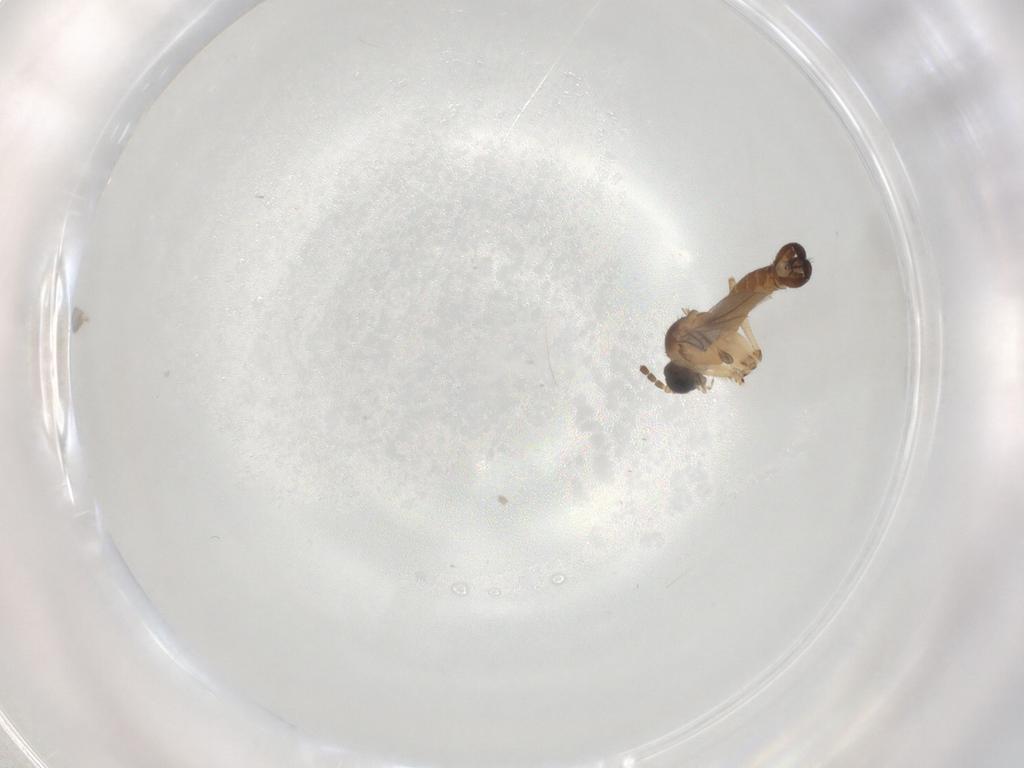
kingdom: Animalia
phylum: Arthropoda
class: Insecta
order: Diptera
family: Sciaridae
